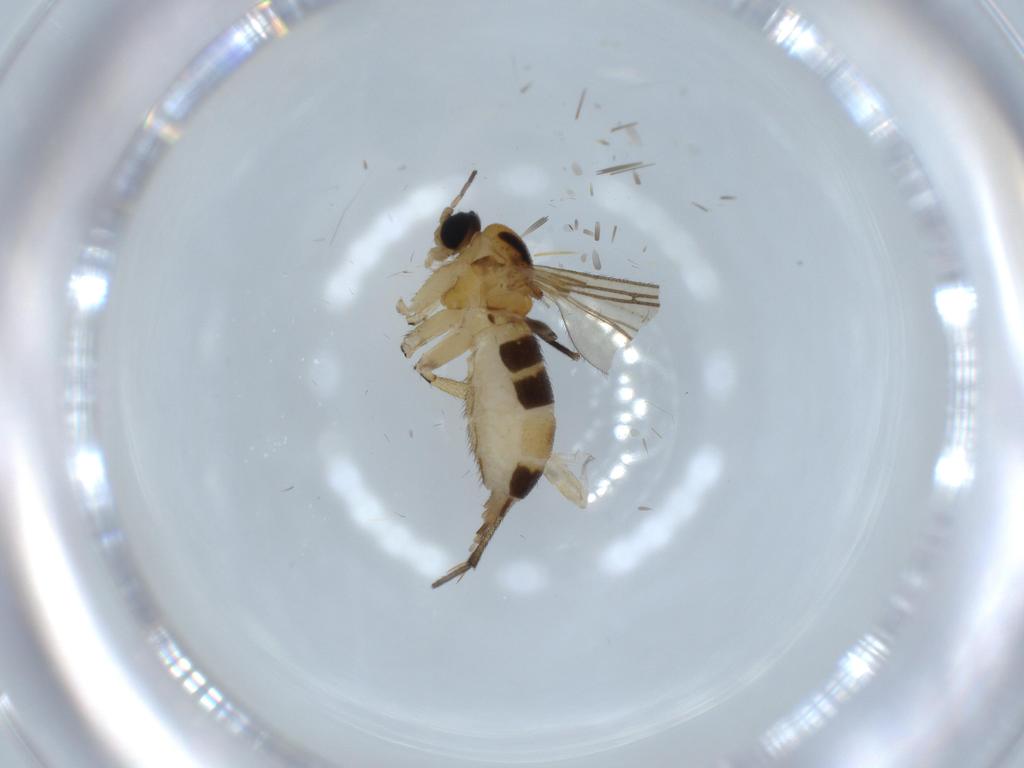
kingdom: Animalia
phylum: Arthropoda
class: Insecta
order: Diptera
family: Sciaridae
